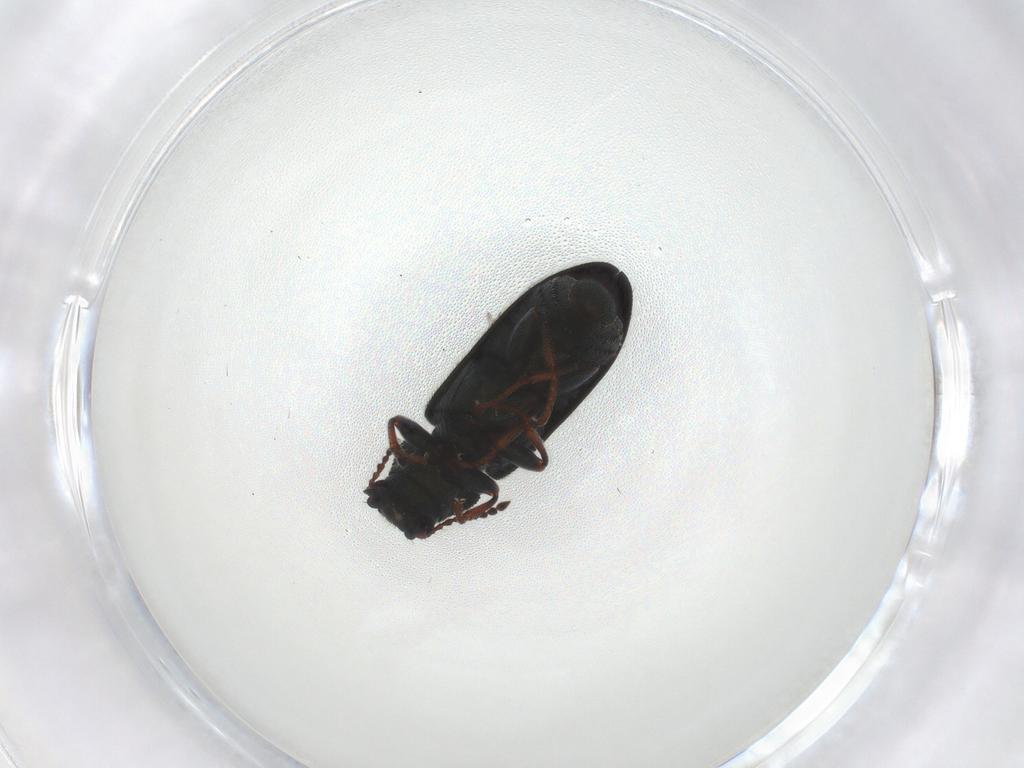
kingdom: Animalia
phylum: Arthropoda
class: Insecta
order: Coleoptera
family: Melyridae
